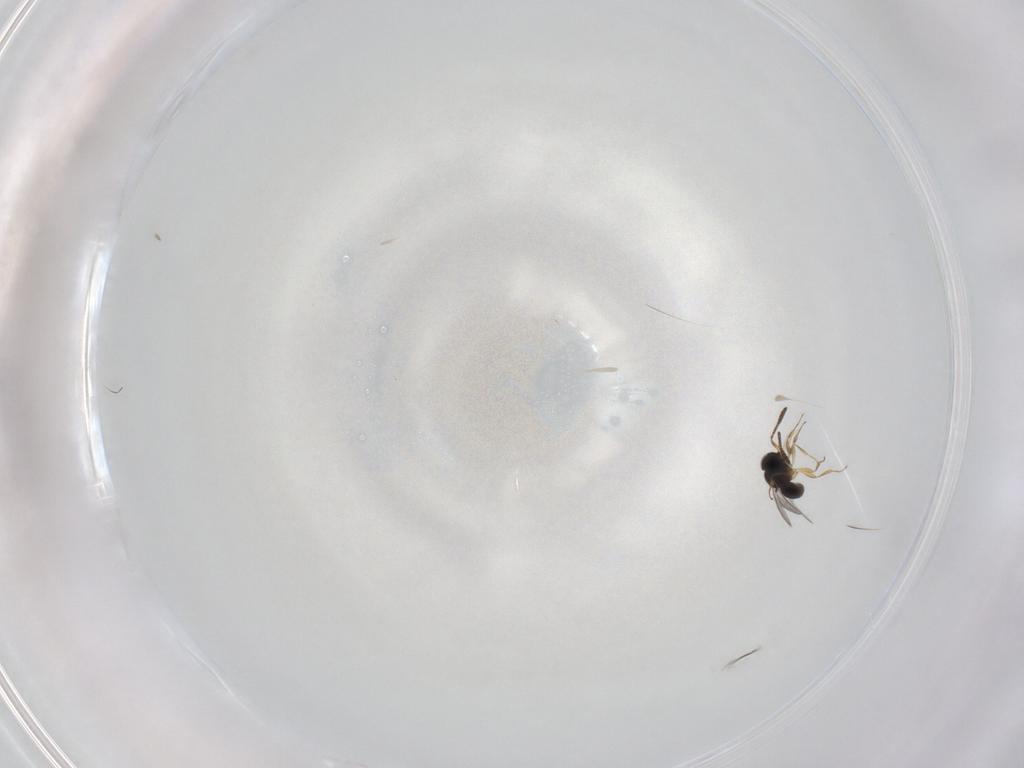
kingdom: Animalia
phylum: Arthropoda
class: Insecta
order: Hymenoptera
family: Scelionidae
